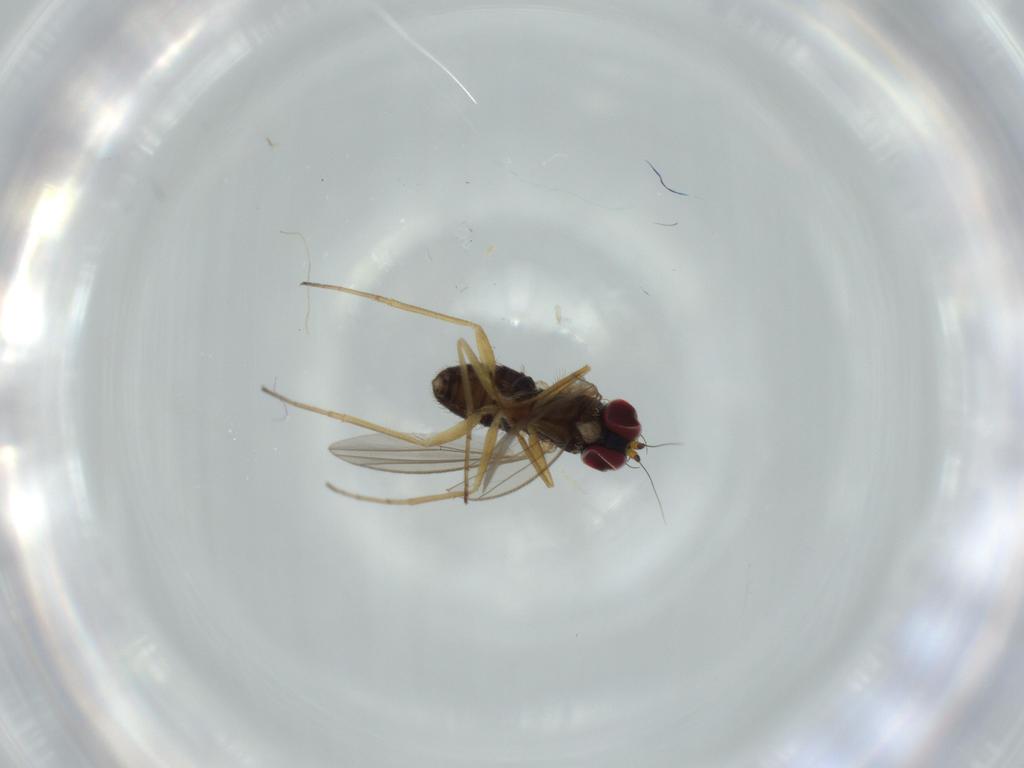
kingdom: Animalia
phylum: Arthropoda
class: Insecta
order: Diptera
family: Dolichopodidae
